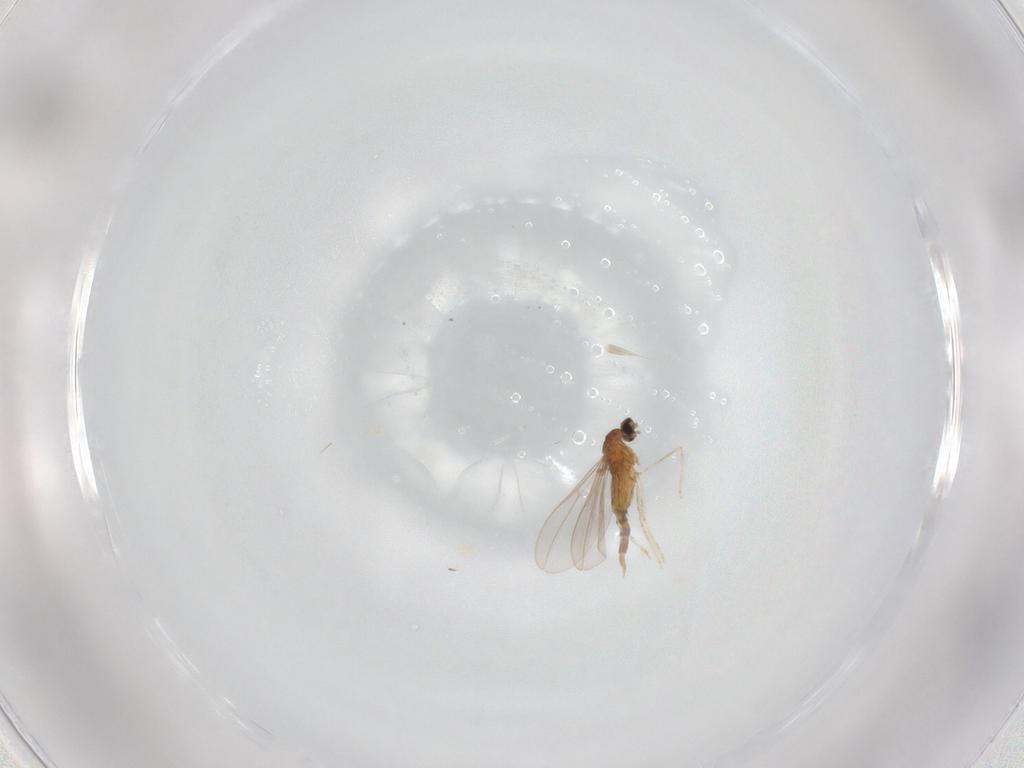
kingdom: Animalia
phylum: Arthropoda
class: Insecta
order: Diptera
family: Cecidomyiidae
